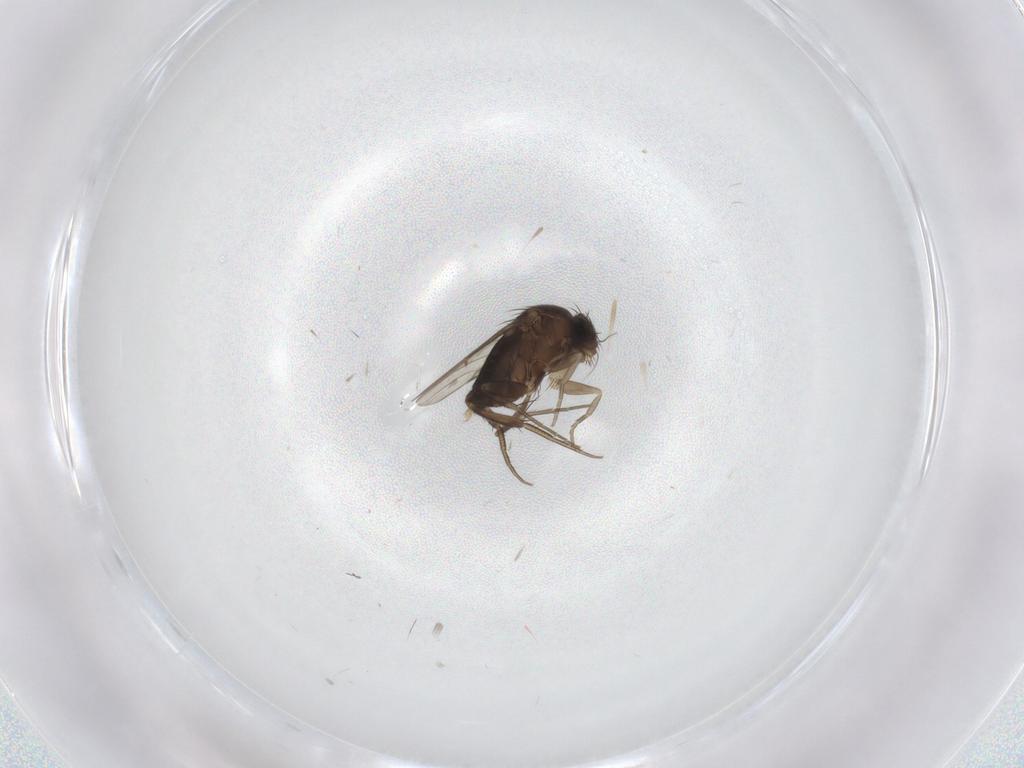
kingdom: Animalia
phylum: Arthropoda
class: Insecta
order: Diptera
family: Phoridae
